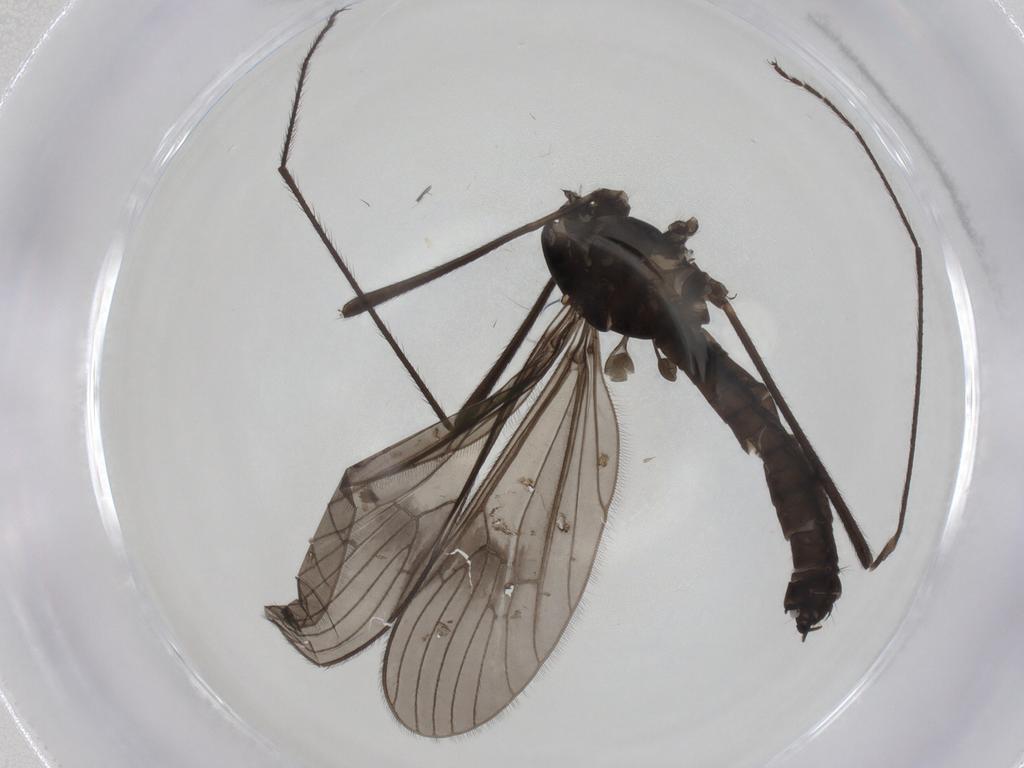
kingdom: Animalia
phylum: Arthropoda
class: Insecta
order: Diptera
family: Limoniidae
